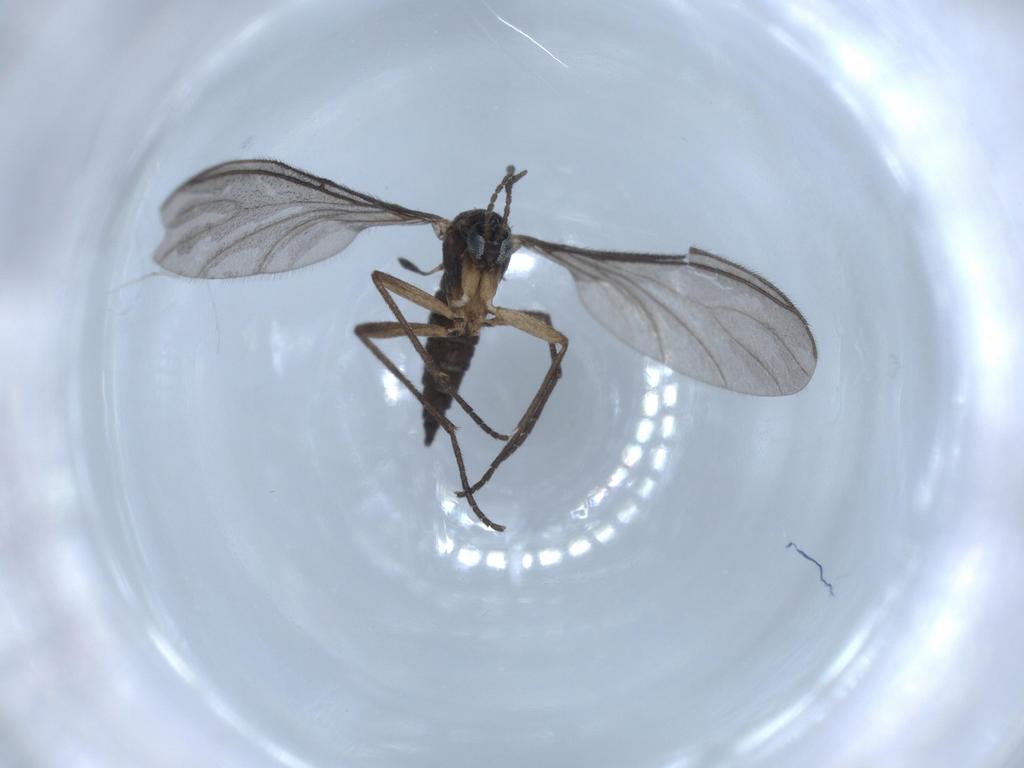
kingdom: Animalia
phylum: Arthropoda
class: Insecta
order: Diptera
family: Sciaridae
